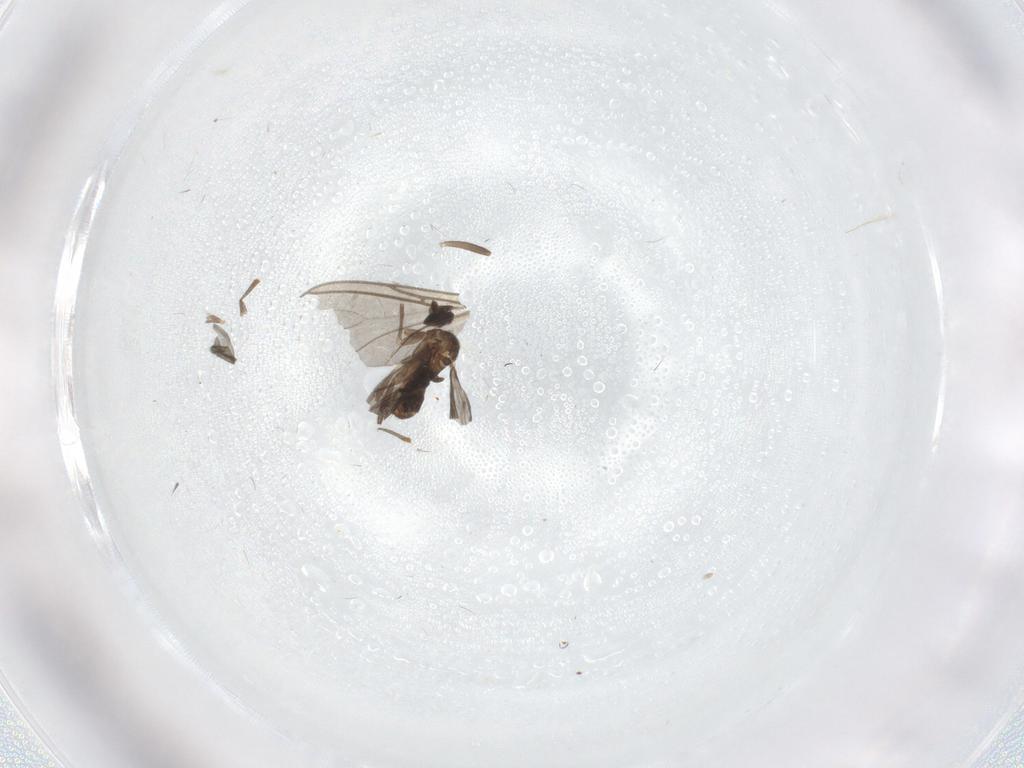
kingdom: Animalia
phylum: Arthropoda
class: Insecta
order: Diptera
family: Phoridae
